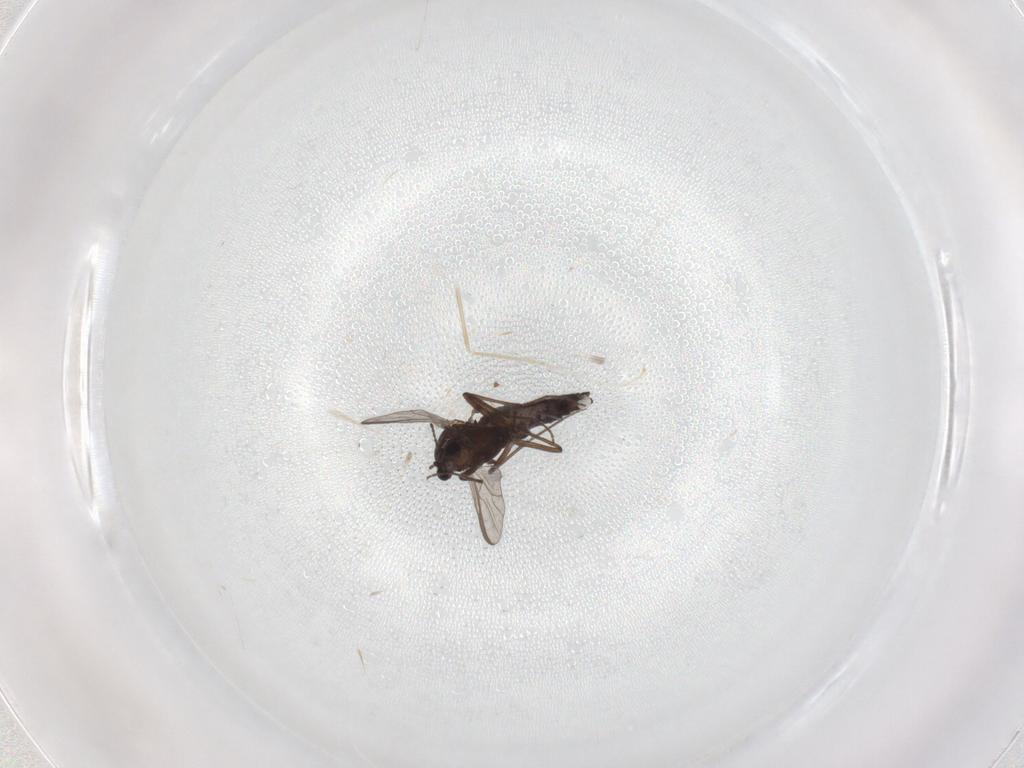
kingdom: Animalia
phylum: Arthropoda
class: Insecta
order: Diptera
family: Chironomidae
